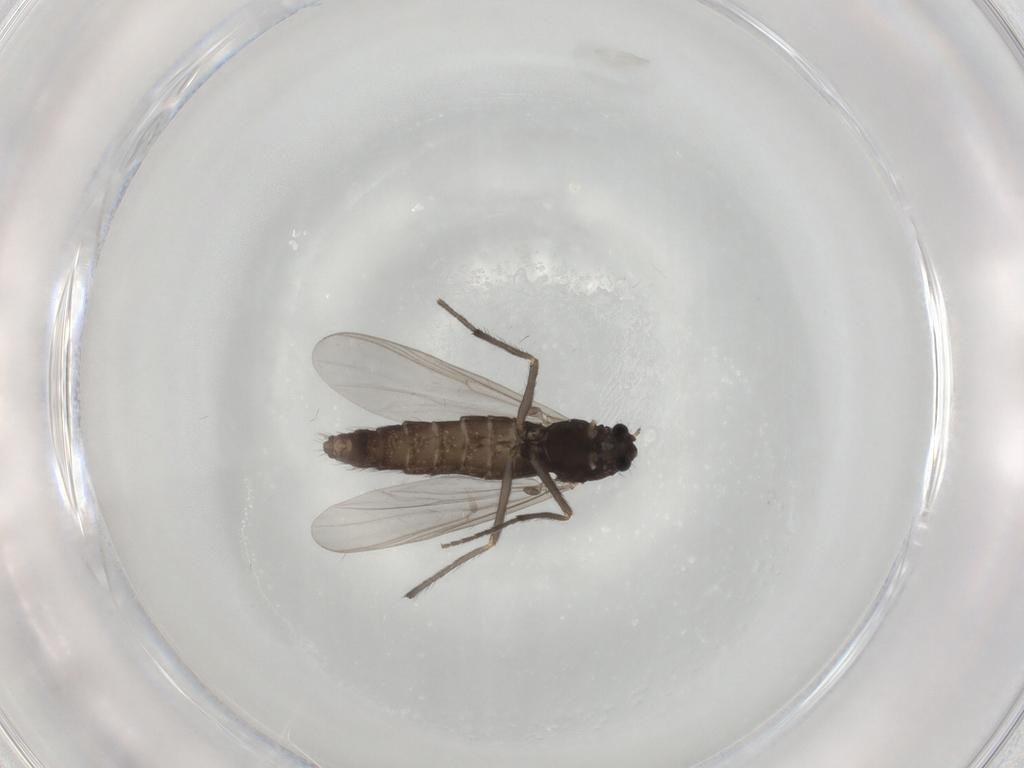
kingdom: Animalia
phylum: Arthropoda
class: Insecta
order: Diptera
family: Chironomidae
